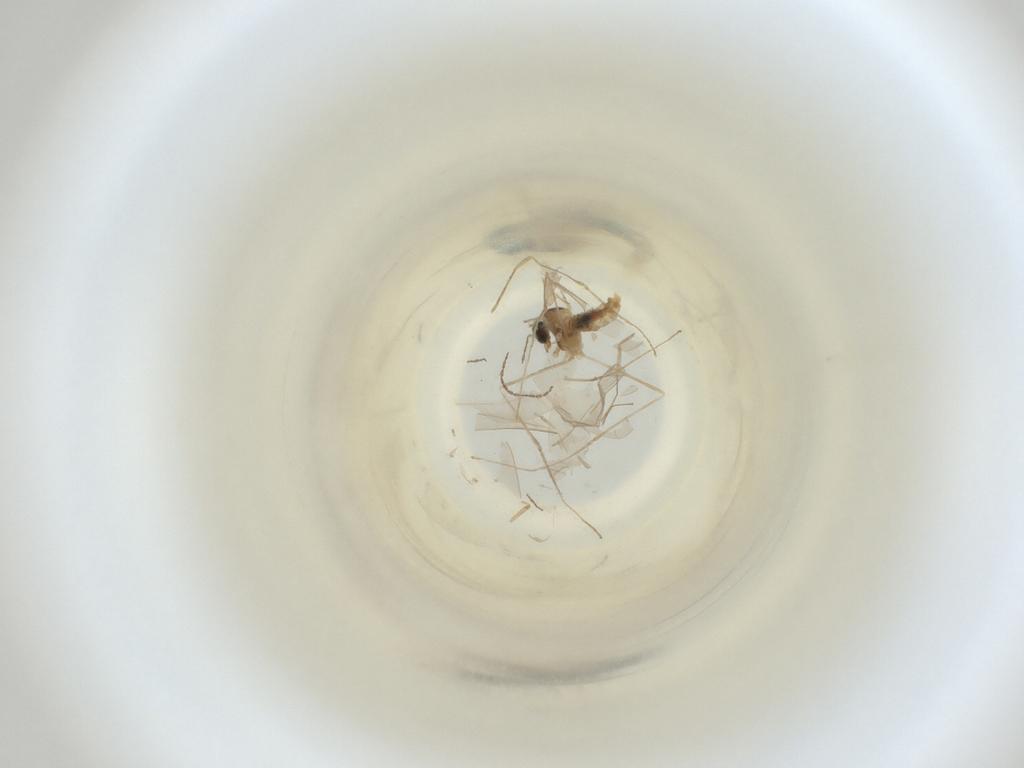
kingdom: Animalia
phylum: Arthropoda
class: Insecta
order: Diptera
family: Cecidomyiidae
